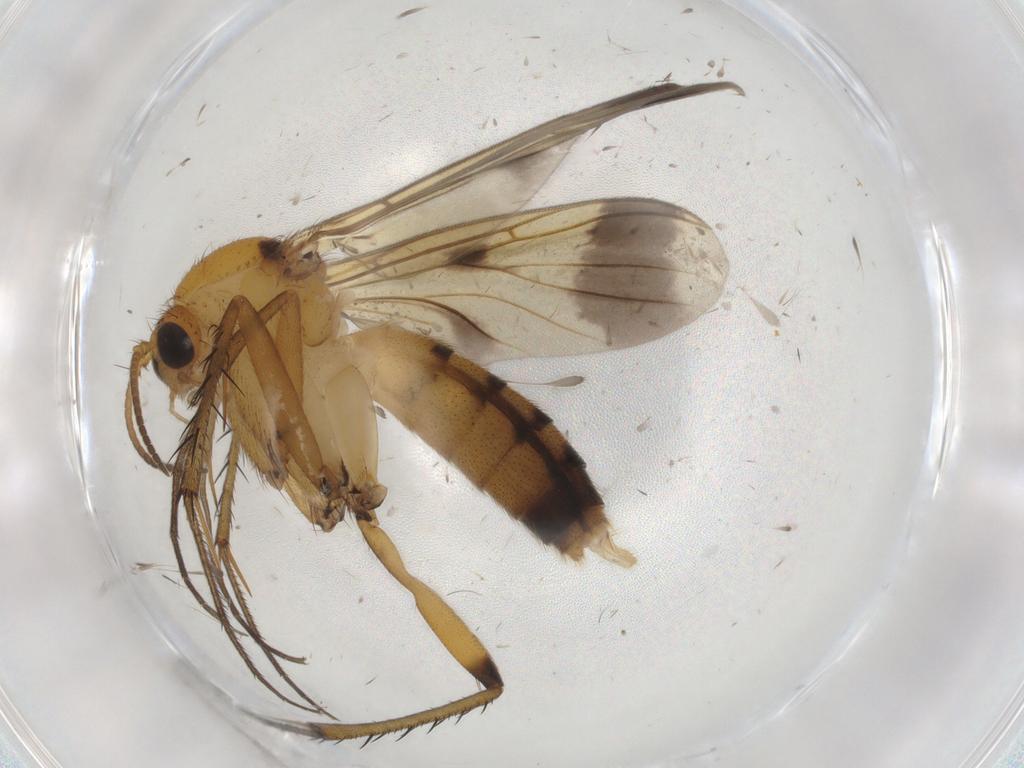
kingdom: Animalia
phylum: Arthropoda
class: Insecta
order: Diptera
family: Mycetophilidae
